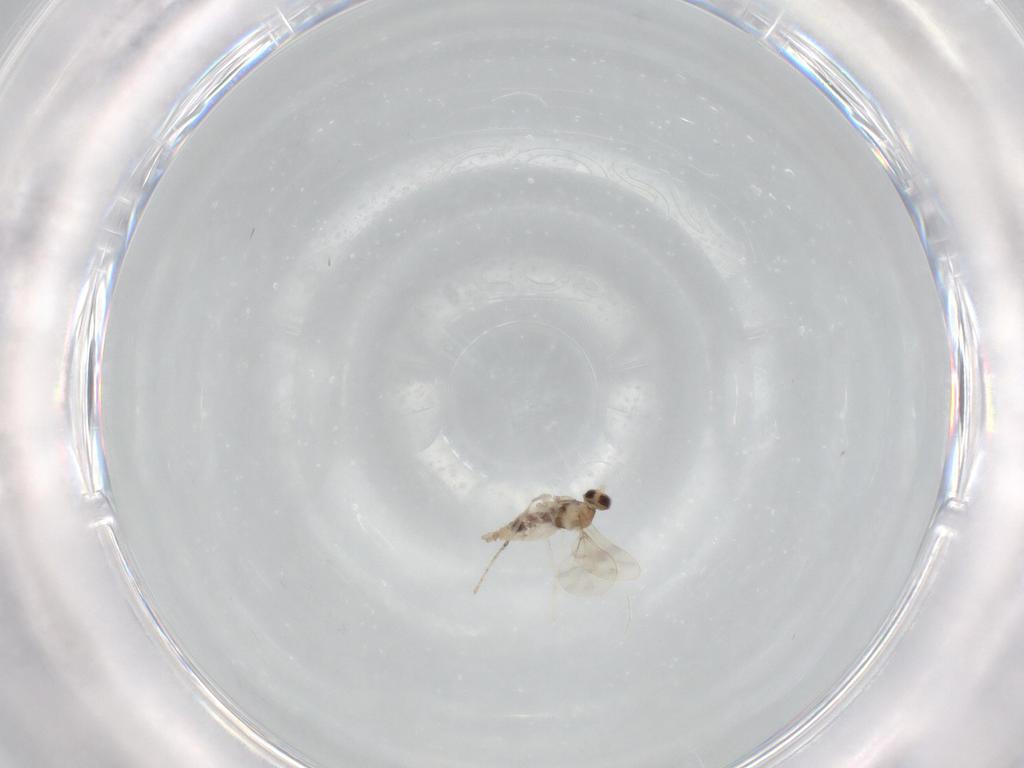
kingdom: Animalia
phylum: Arthropoda
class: Insecta
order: Diptera
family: Cecidomyiidae
